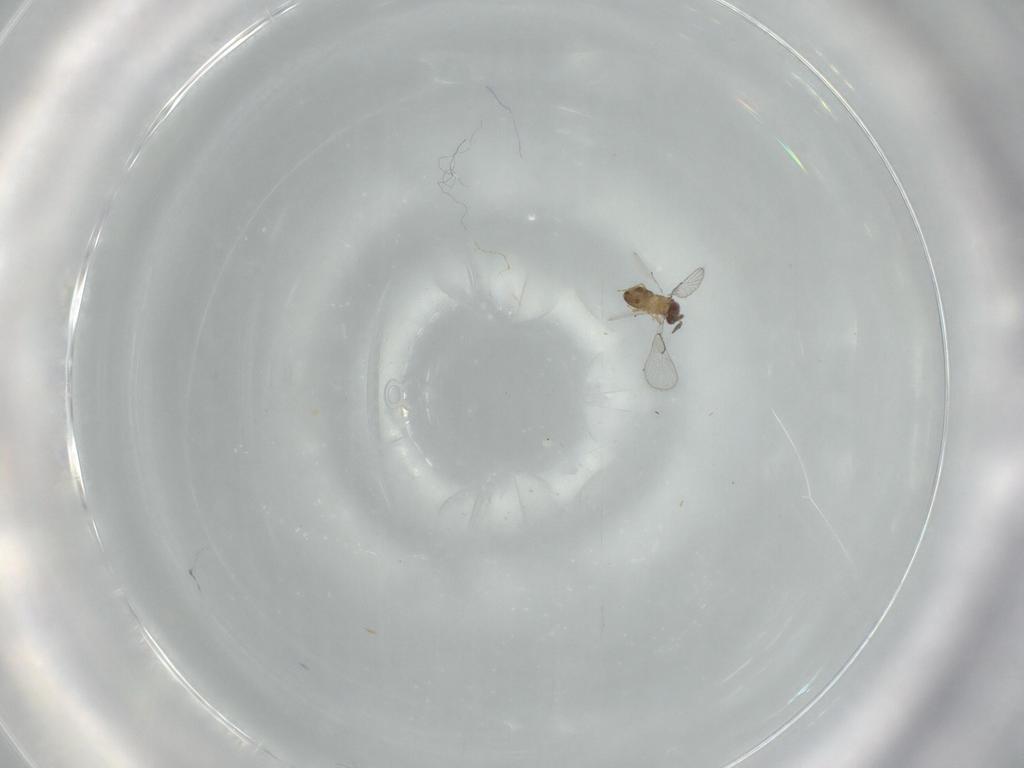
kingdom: Animalia
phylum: Arthropoda
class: Insecta
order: Hymenoptera
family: Trichogrammatidae
